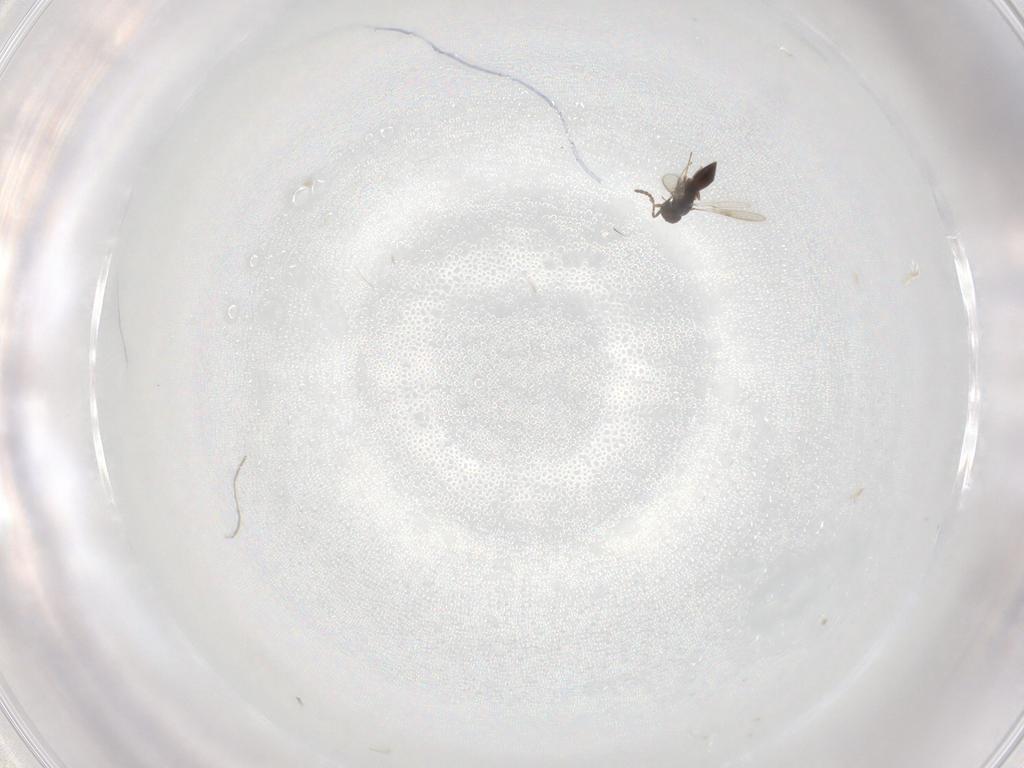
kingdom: Animalia
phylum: Arthropoda
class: Insecta
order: Hymenoptera
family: Scelionidae
